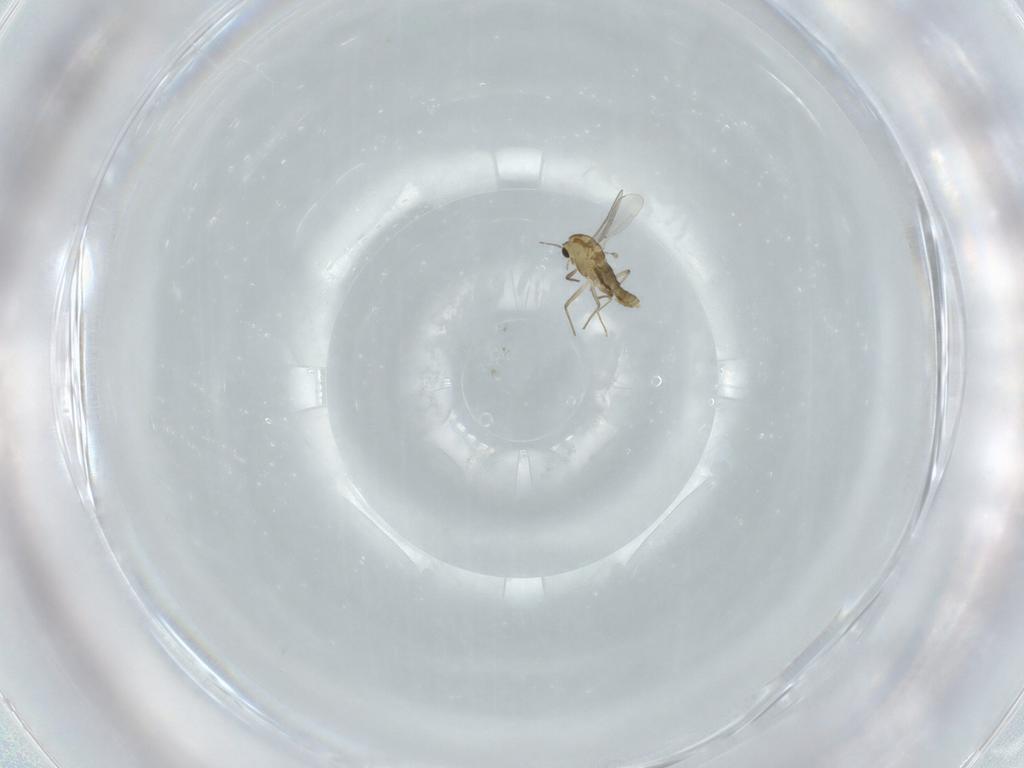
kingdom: Animalia
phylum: Arthropoda
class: Insecta
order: Diptera
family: Chironomidae
